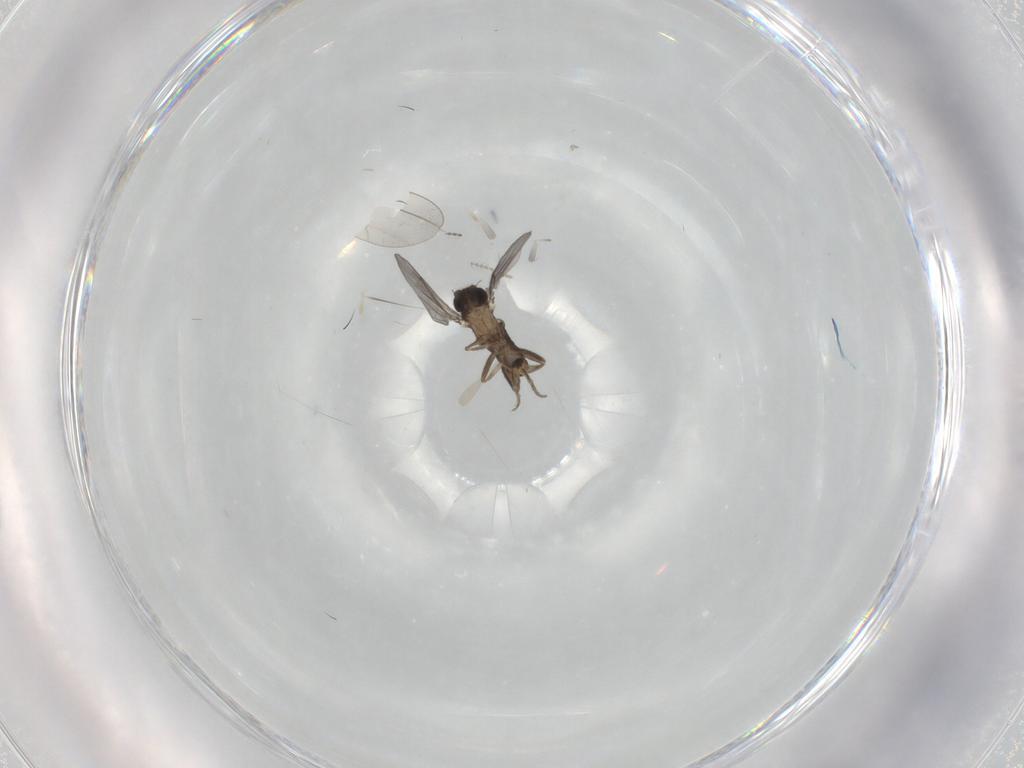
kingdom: Animalia
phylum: Arthropoda
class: Insecta
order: Diptera
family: Ceratopogonidae
